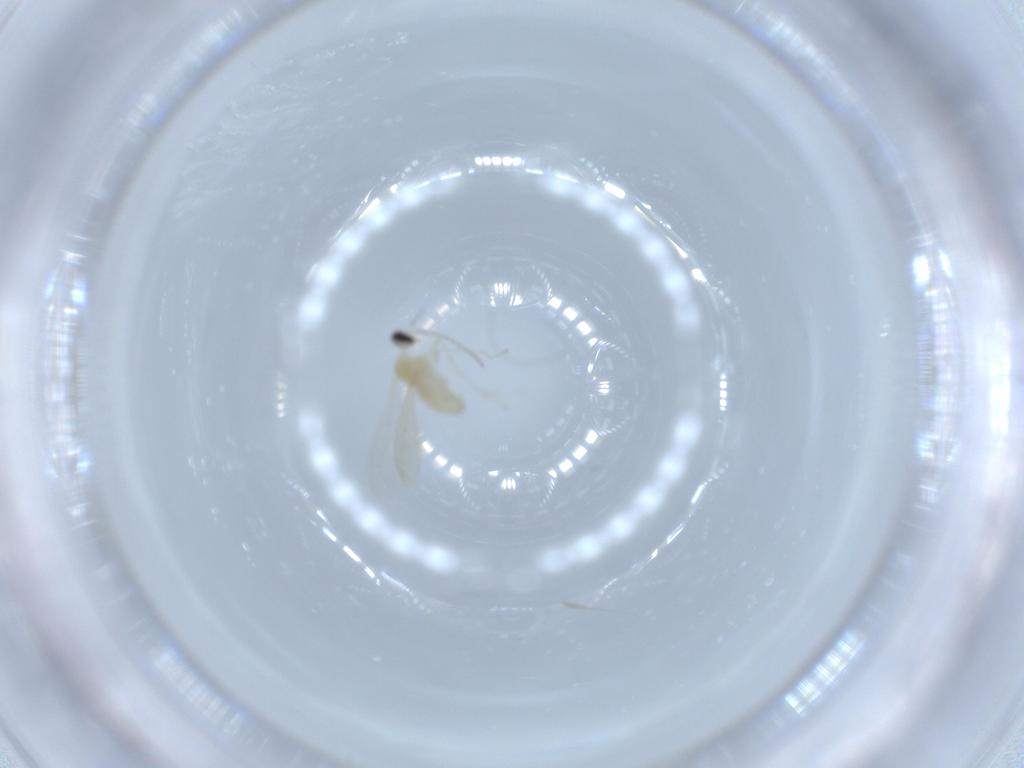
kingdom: Animalia
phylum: Arthropoda
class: Insecta
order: Diptera
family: Cecidomyiidae
